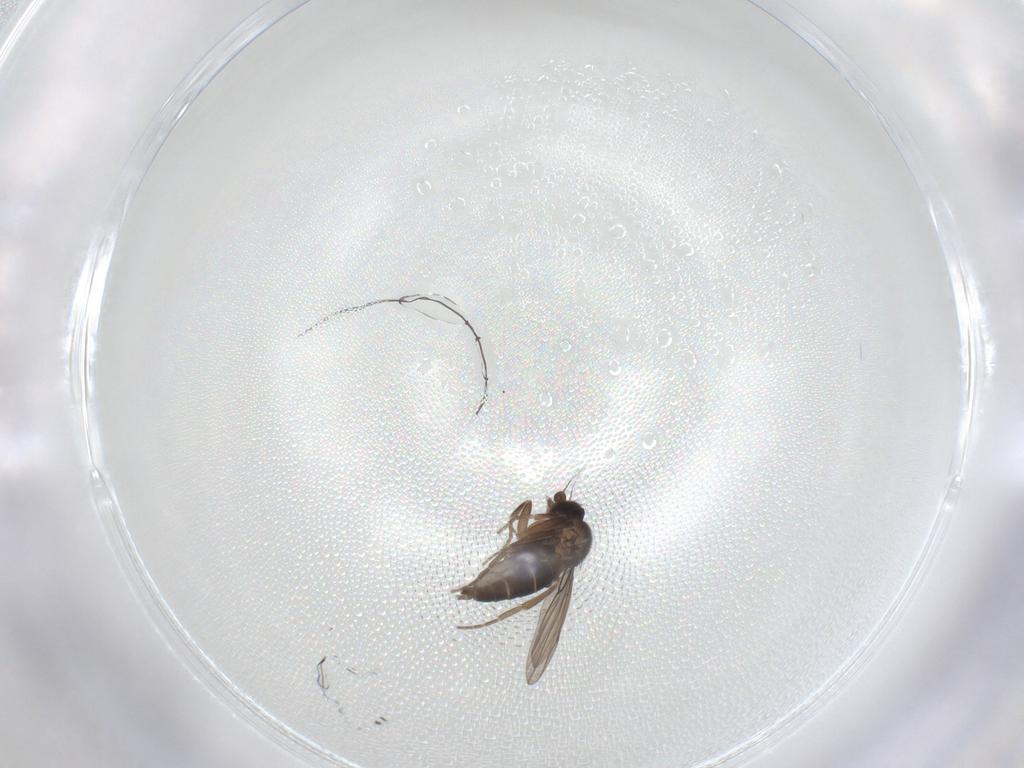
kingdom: Animalia
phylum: Arthropoda
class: Insecta
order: Diptera
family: Phoridae
